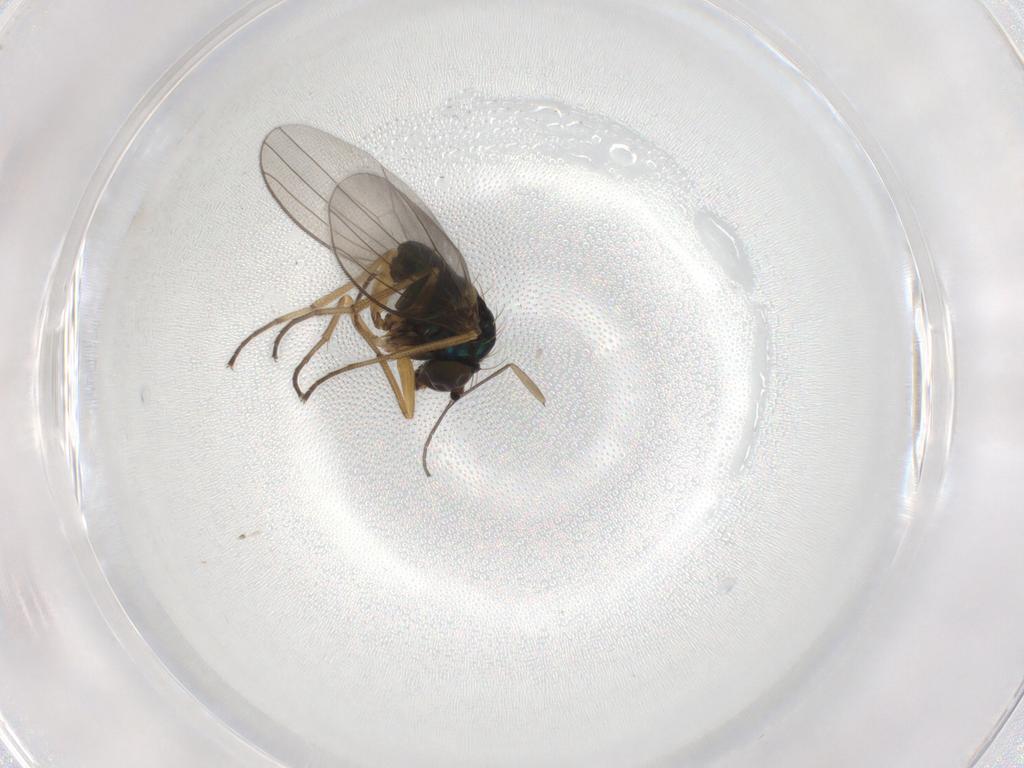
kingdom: Animalia
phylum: Arthropoda
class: Insecta
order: Diptera
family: Dolichopodidae
